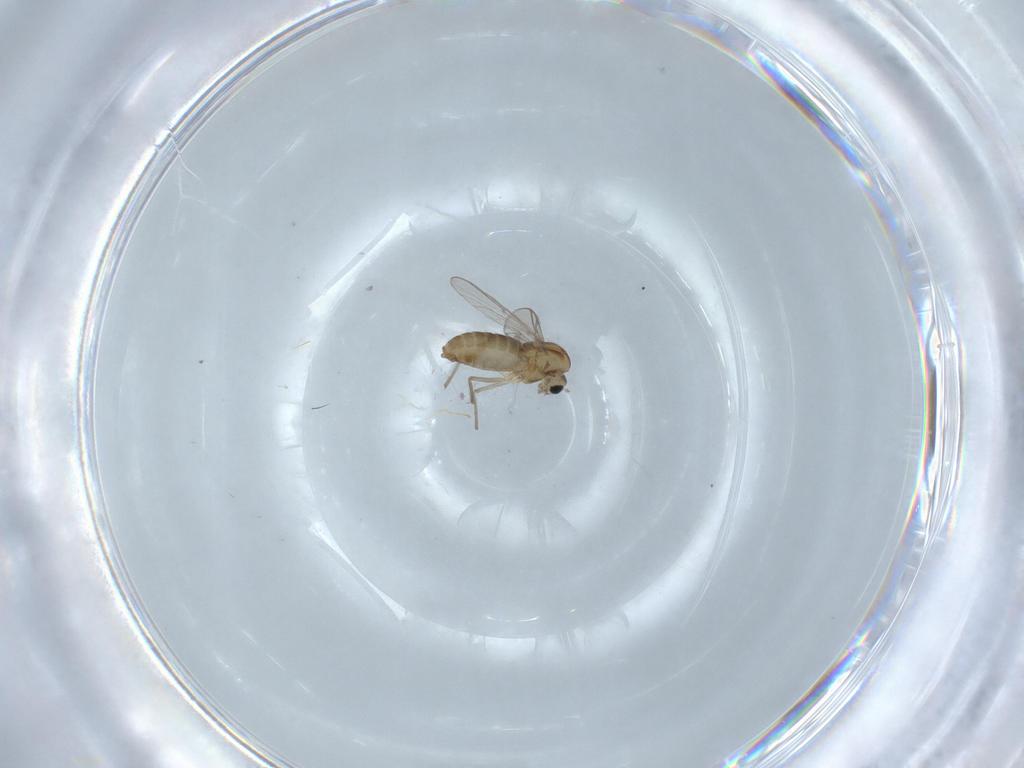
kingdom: Animalia
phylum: Arthropoda
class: Insecta
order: Diptera
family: Chironomidae
